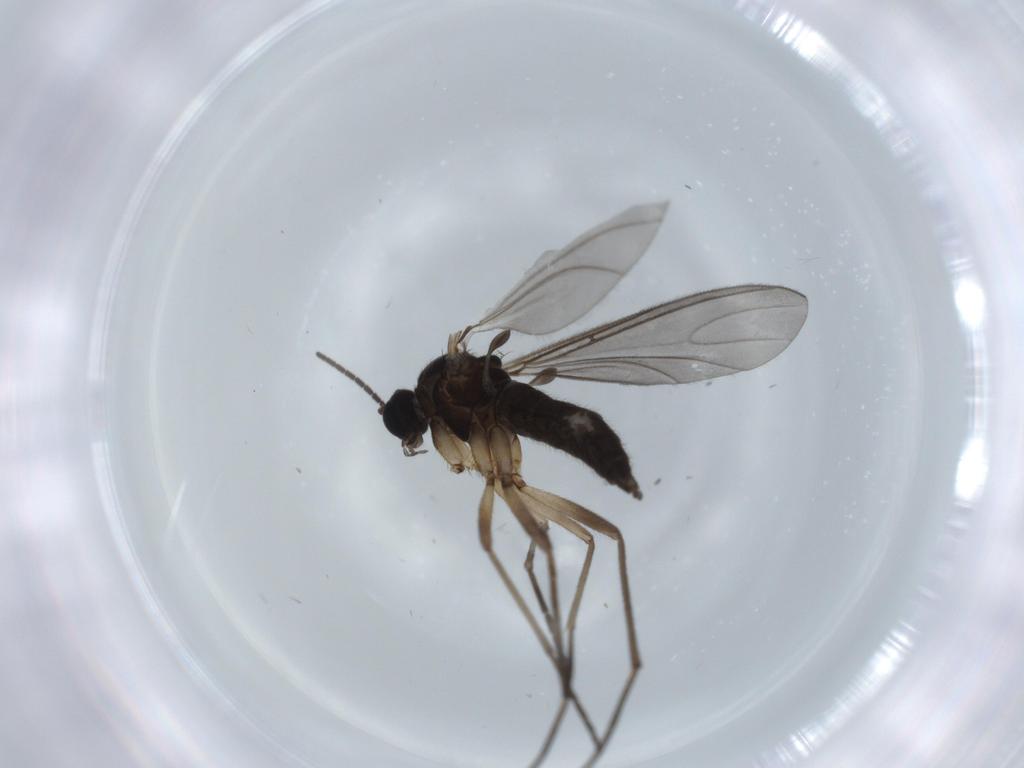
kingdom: Animalia
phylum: Arthropoda
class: Insecta
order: Diptera
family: Sciaridae
